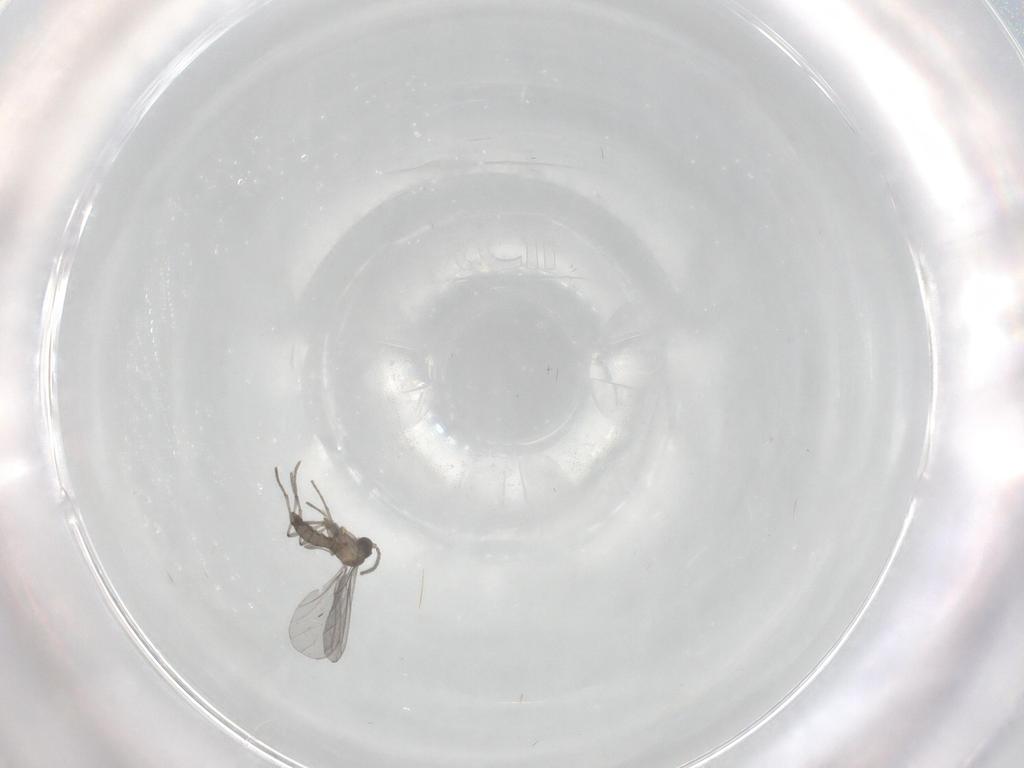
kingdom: Animalia
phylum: Arthropoda
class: Insecta
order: Diptera
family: Sciaridae
